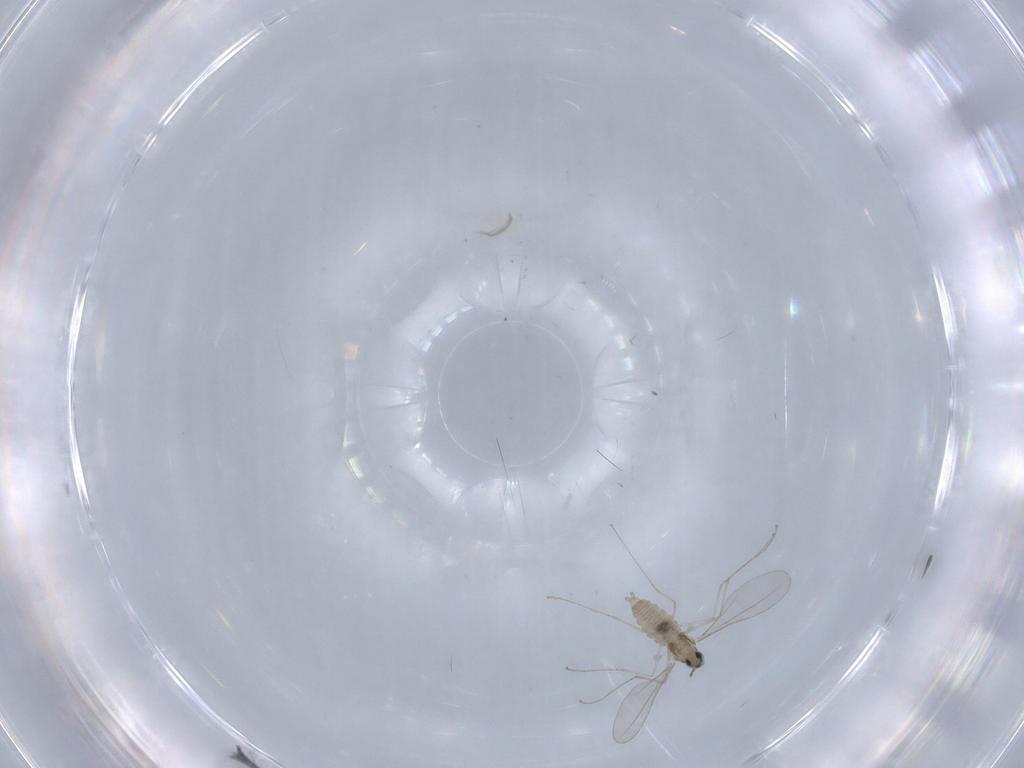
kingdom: Animalia
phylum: Arthropoda
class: Insecta
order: Diptera
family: Cecidomyiidae
